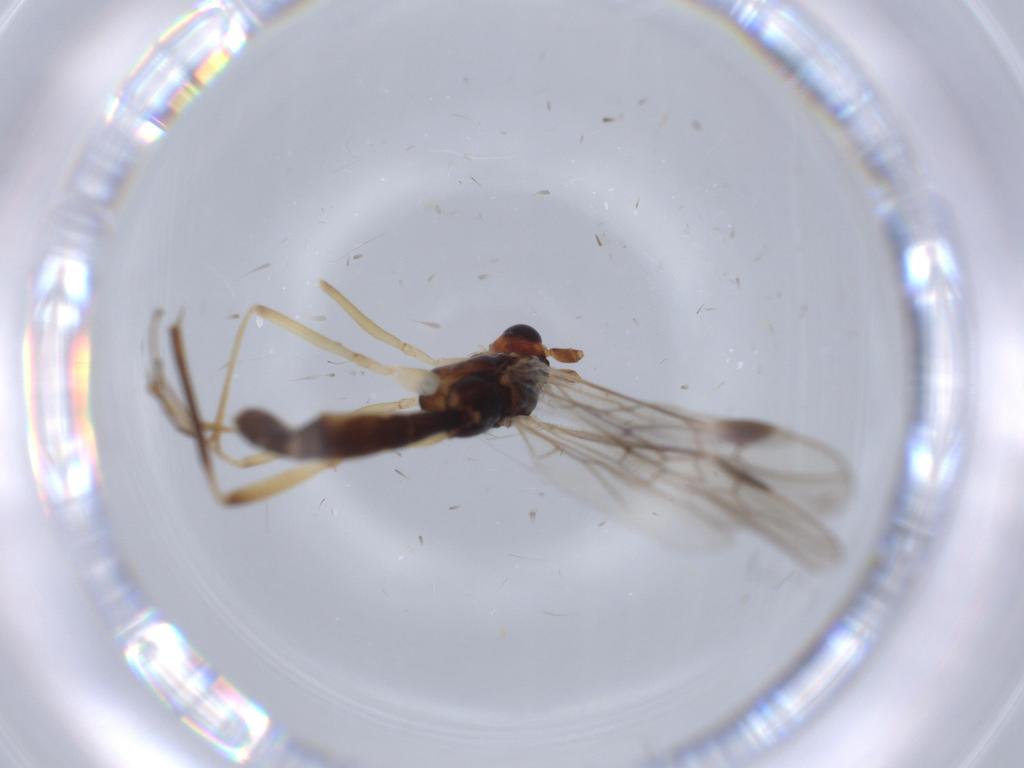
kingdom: Animalia
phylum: Arthropoda
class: Insecta
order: Hymenoptera
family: Braconidae
